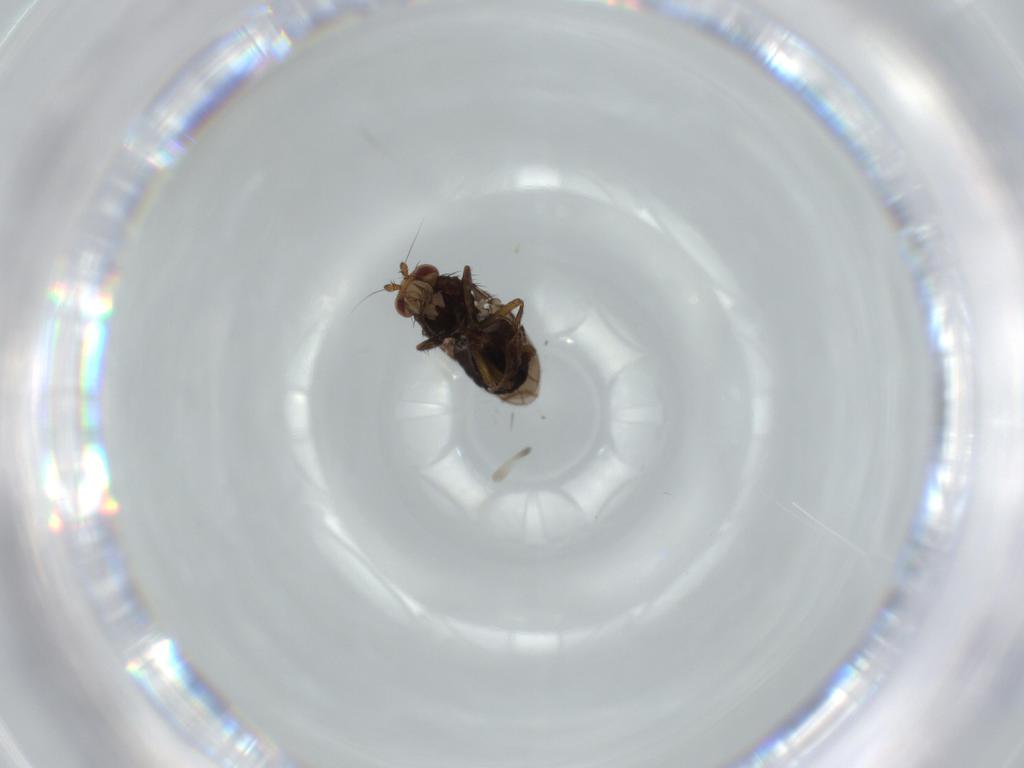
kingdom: Animalia
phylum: Arthropoda
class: Insecta
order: Diptera
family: Sphaeroceridae
